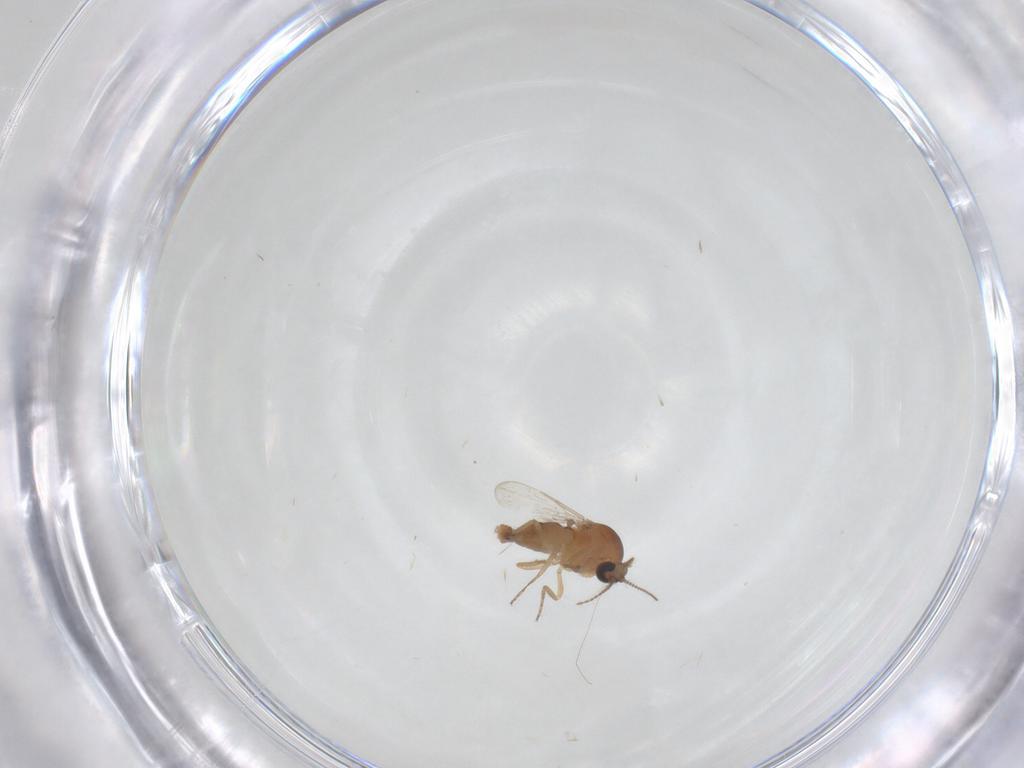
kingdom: Animalia
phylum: Arthropoda
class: Insecta
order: Diptera
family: Ceratopogonidae
